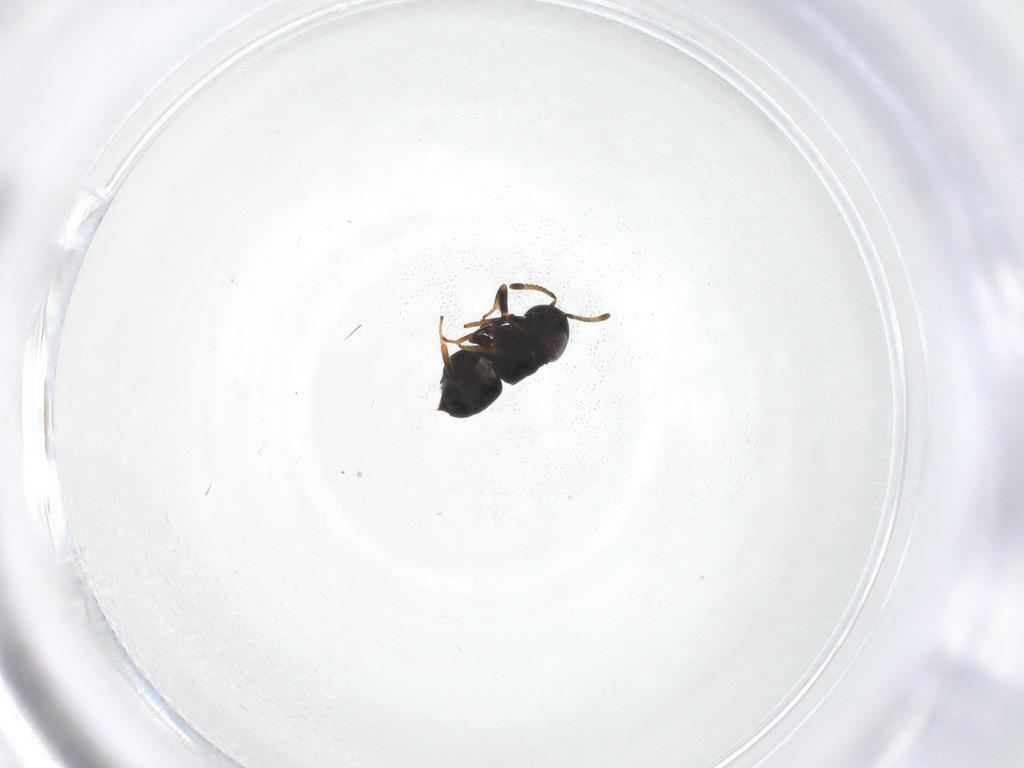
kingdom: Animalia
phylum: Arthropoda
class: Insecta
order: Hymenoptera
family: Encyrtidae
